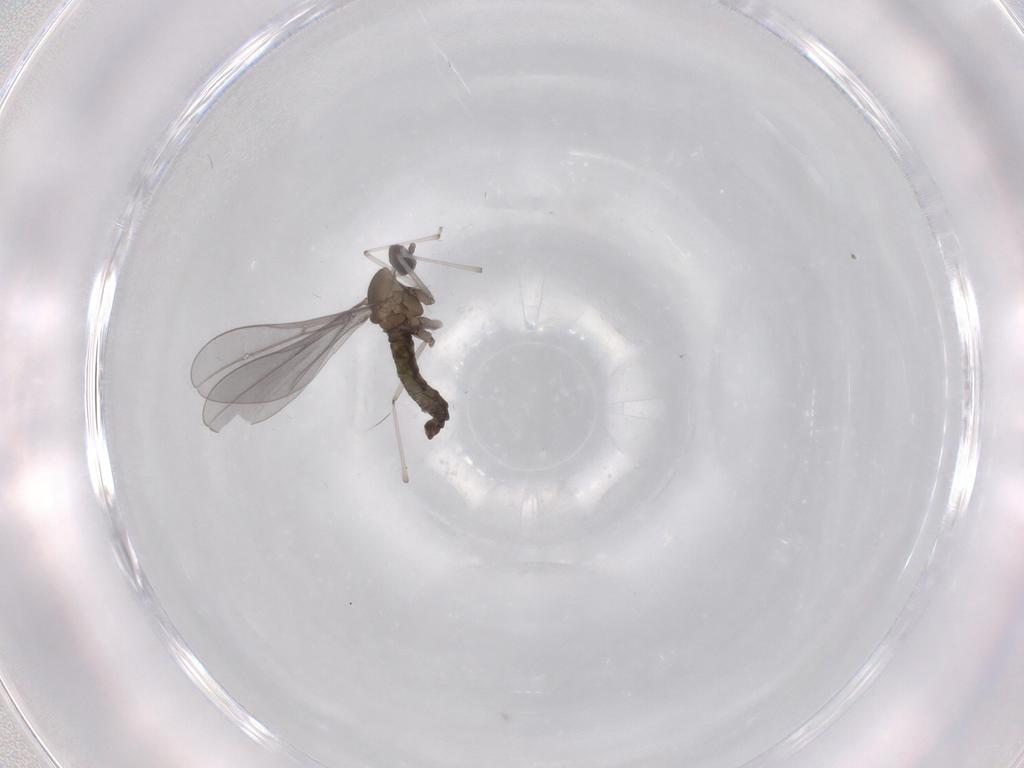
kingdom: Animalia
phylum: Arthropoda
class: Insecta
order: Diptera
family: Cecidomyiidae
